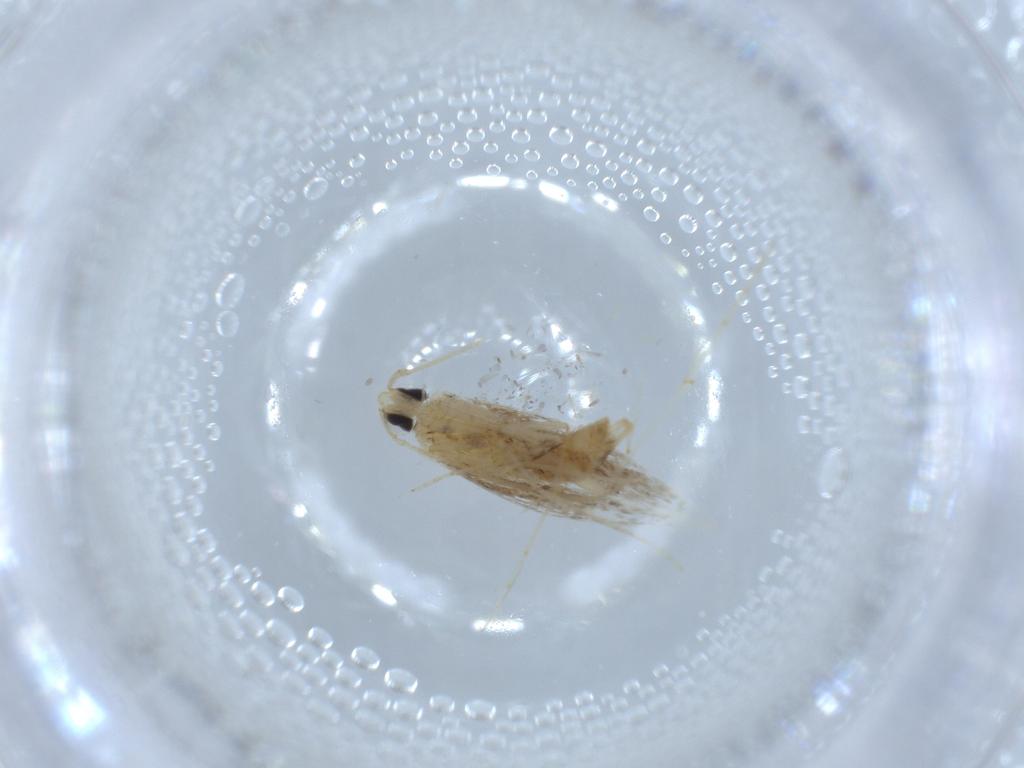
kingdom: Animalia
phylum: Arthropoda
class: Insecta
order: Lepidoptera
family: Tineidae
